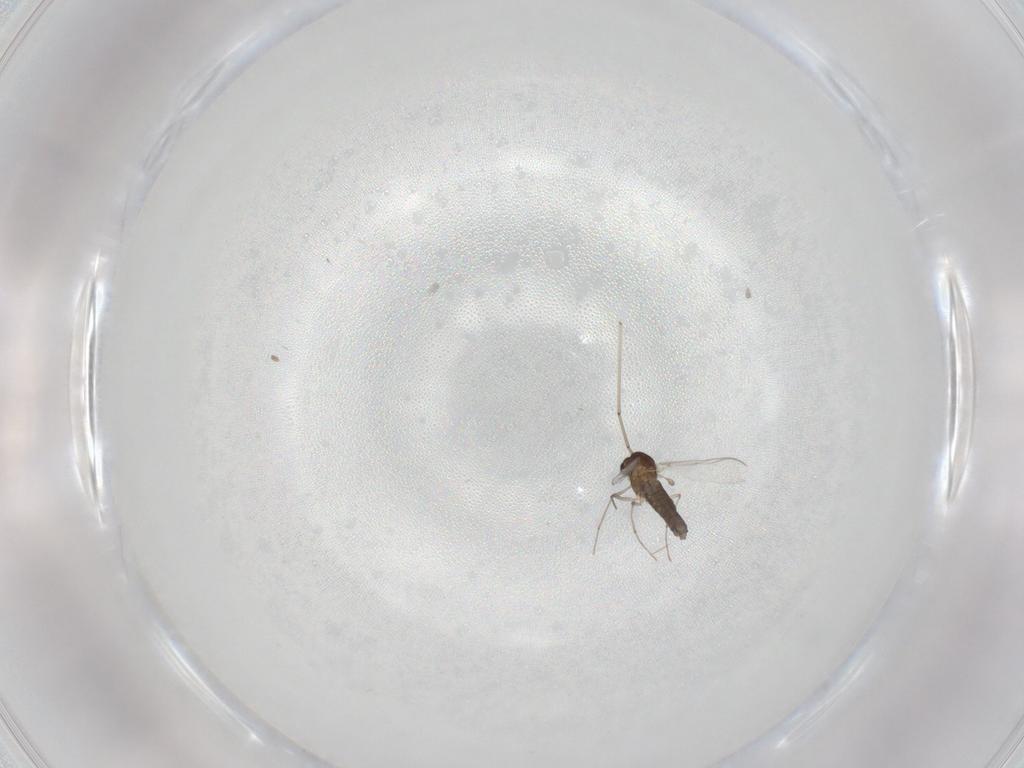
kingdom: Animalia
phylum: Arthropoda
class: Insecta
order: Diptera
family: Chironomidae
